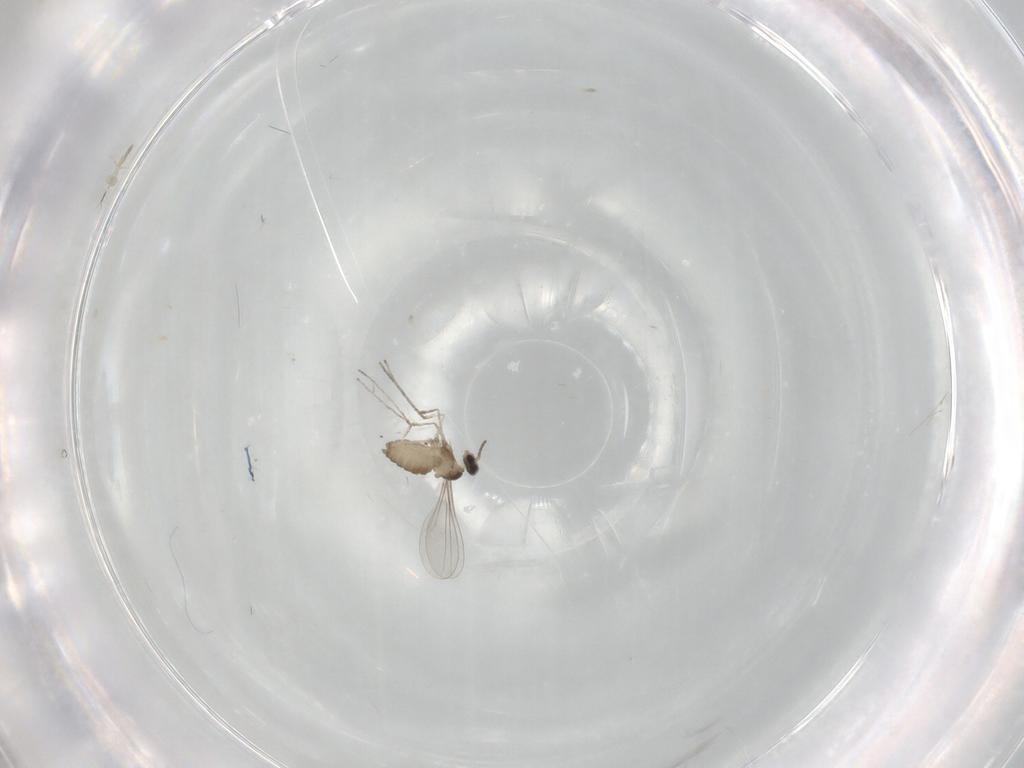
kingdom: Animalia
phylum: Arthropoda
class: Insecta
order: Diptera
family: Cecidomyiidae
